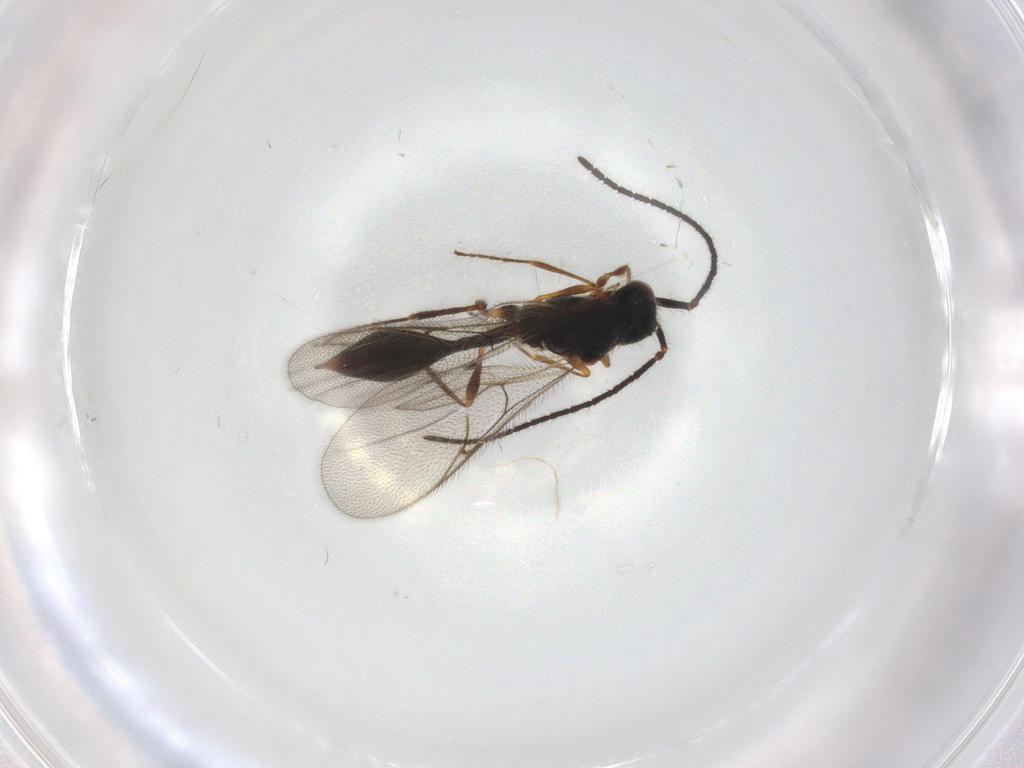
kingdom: Animalia
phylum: Arthropoda
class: Insecta
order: Hymenoptera
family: Diapriidae
